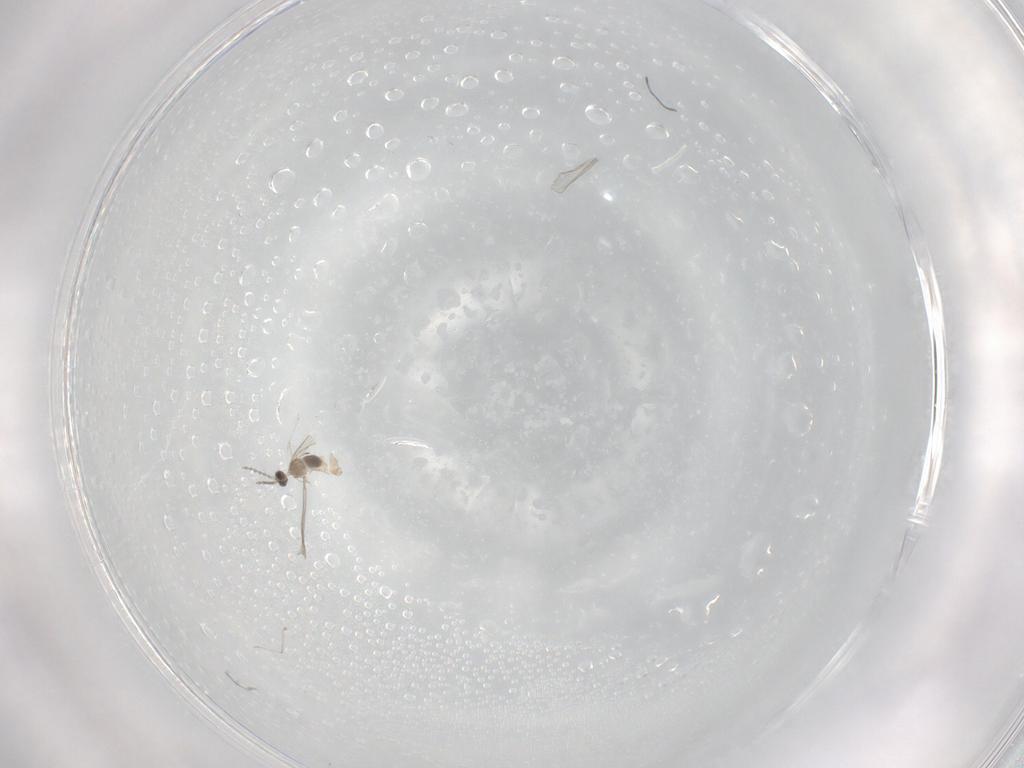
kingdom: Animalia
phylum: Arthropoda
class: Insecta
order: Diptera
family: Cecidomyiidae
